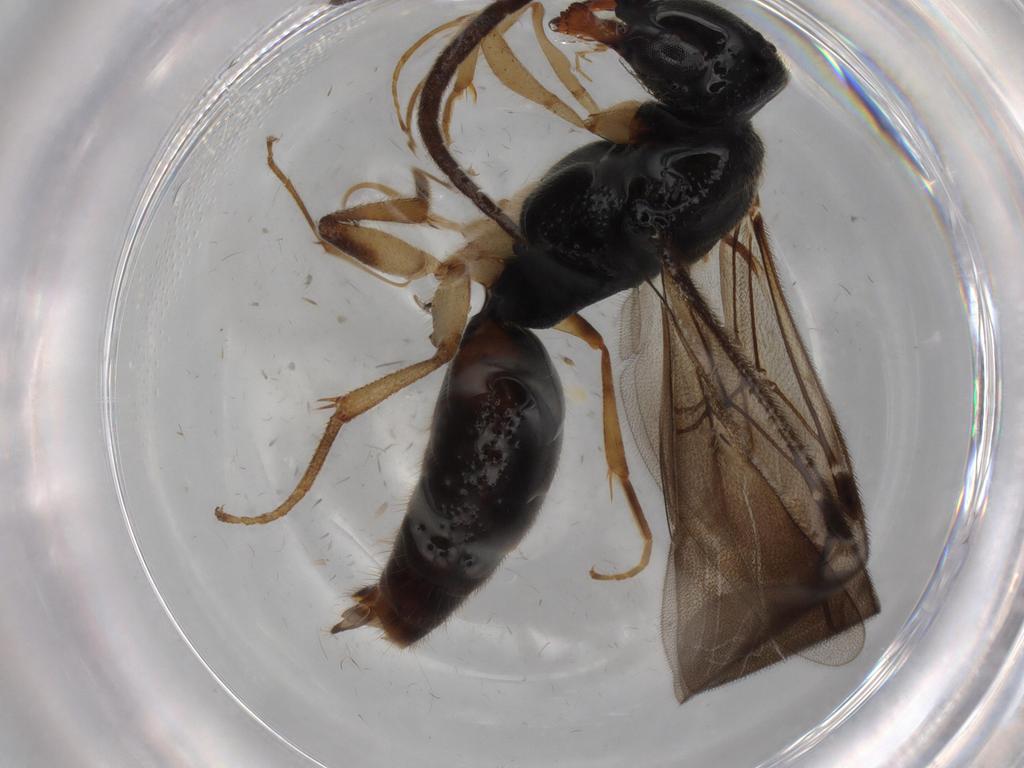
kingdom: Animalia
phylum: Arthropoda
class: Insecta
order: Hymenoptera
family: Bethylidae
